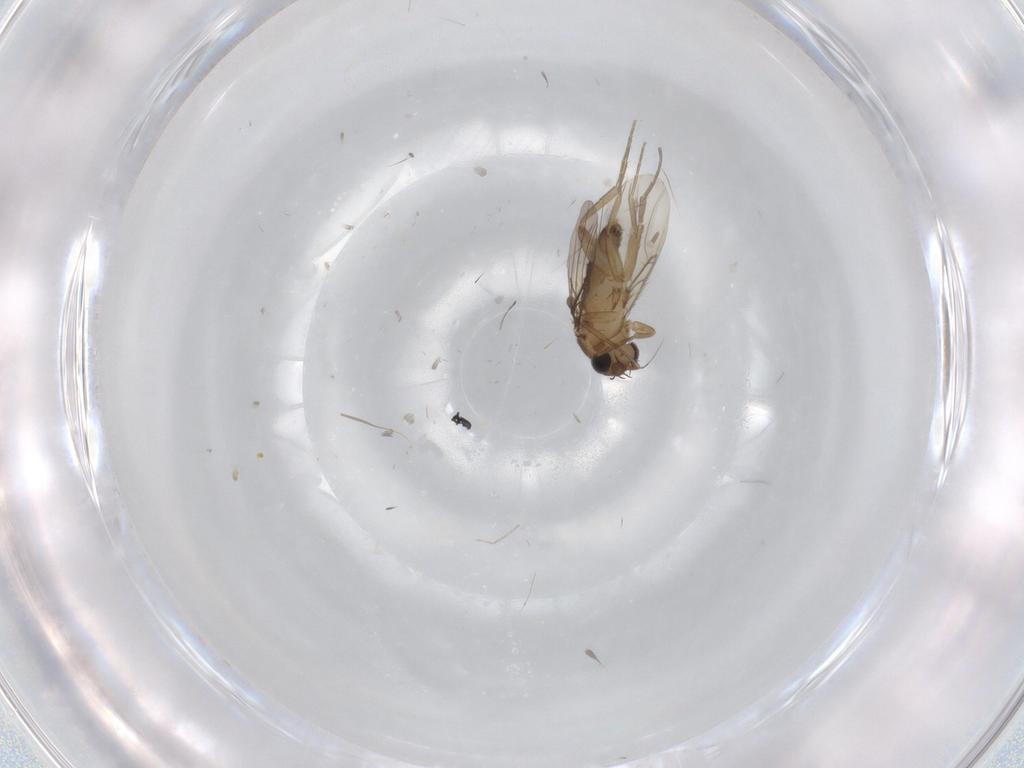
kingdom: Animalia
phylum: Arthropoda
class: Insecta
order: Diptera
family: Phoridae
